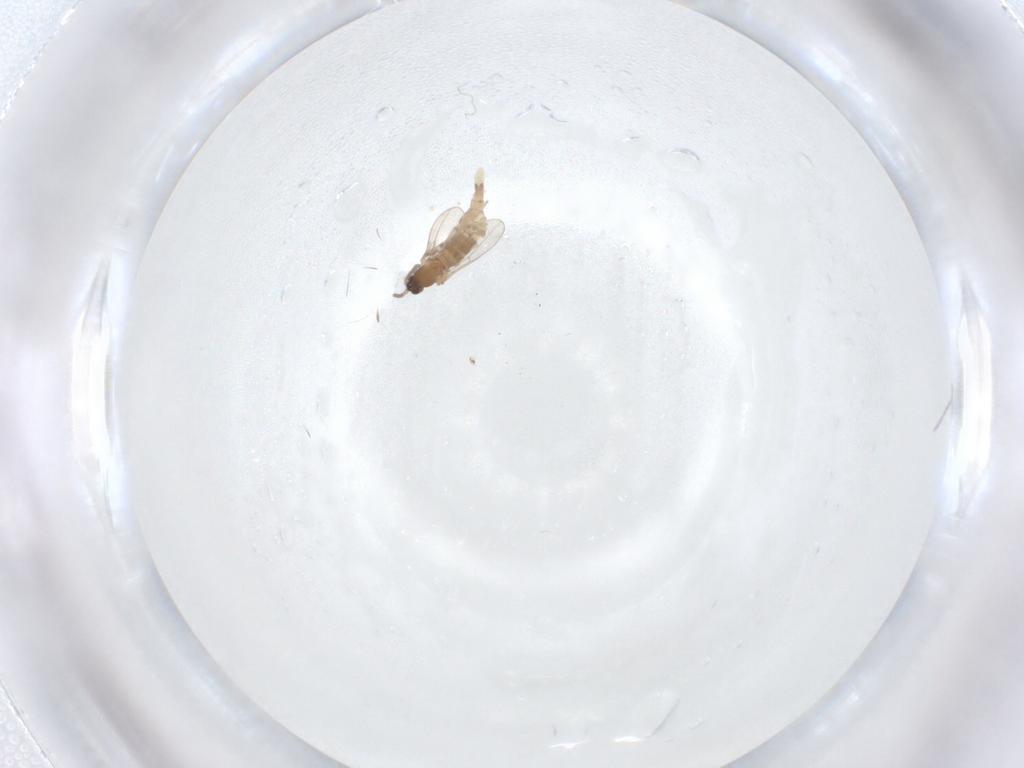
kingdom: Animalia
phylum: Arthropoda
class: Insecta
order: Diptera
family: Cecidomyiidae
